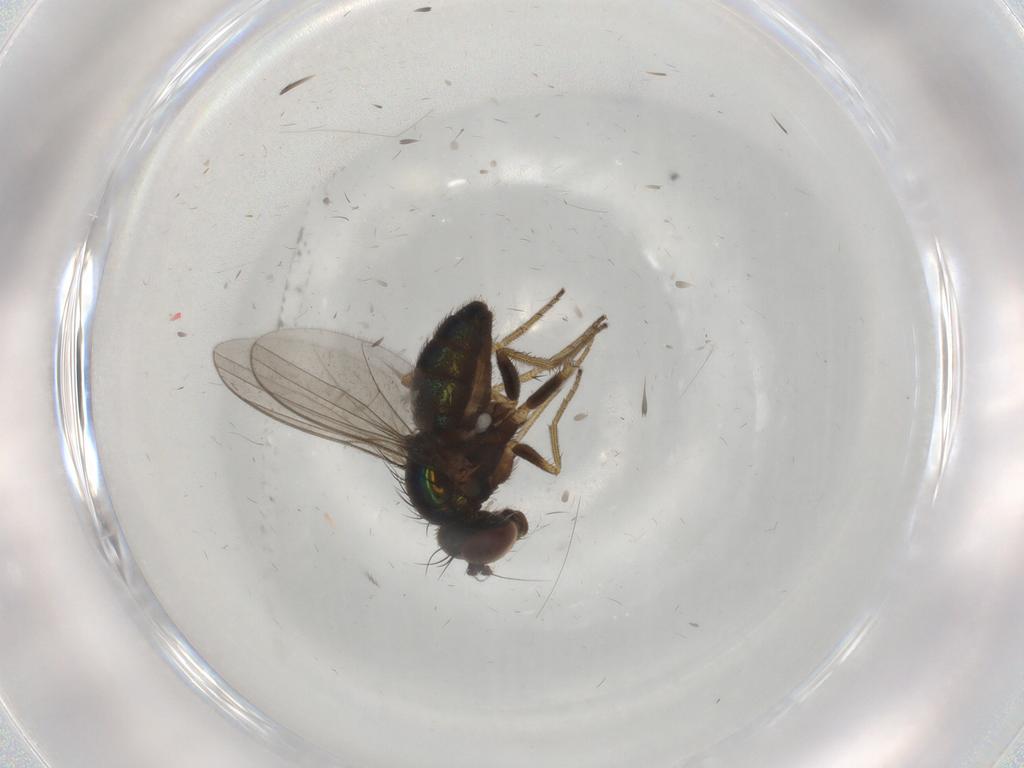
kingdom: Animalia
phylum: Arthropoda
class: Insecta
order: Diptera
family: Dolichopodidae
